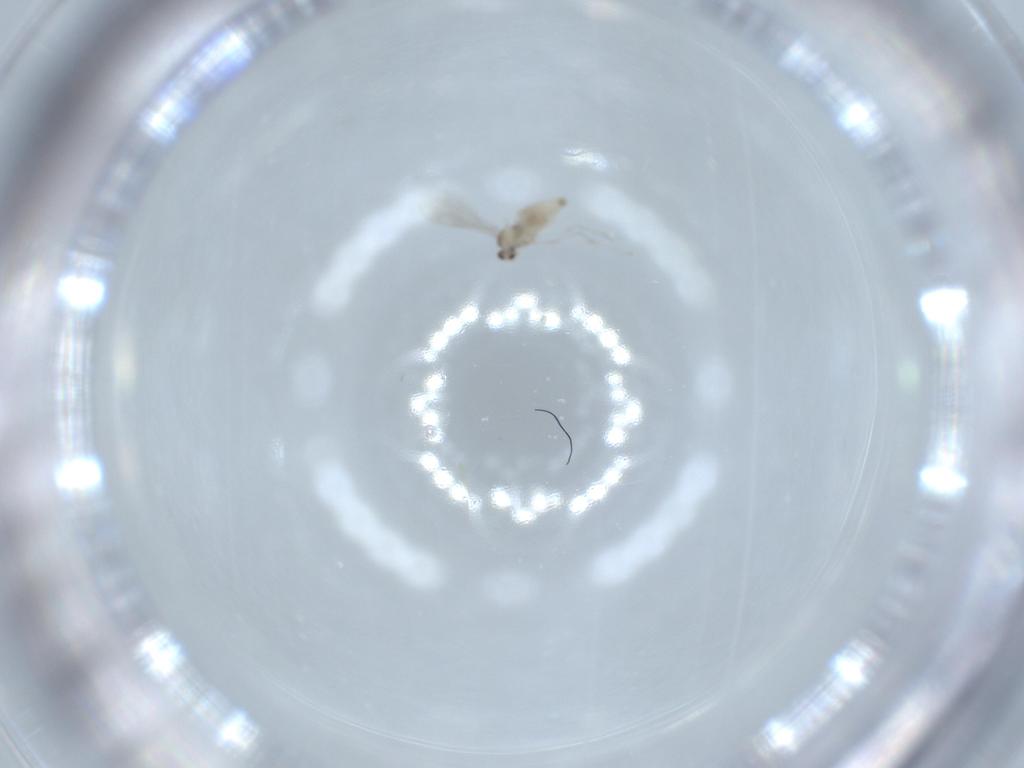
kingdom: Animalia
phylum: Arthropoda
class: Insecta
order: Diptera
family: Cecidomyiidae
